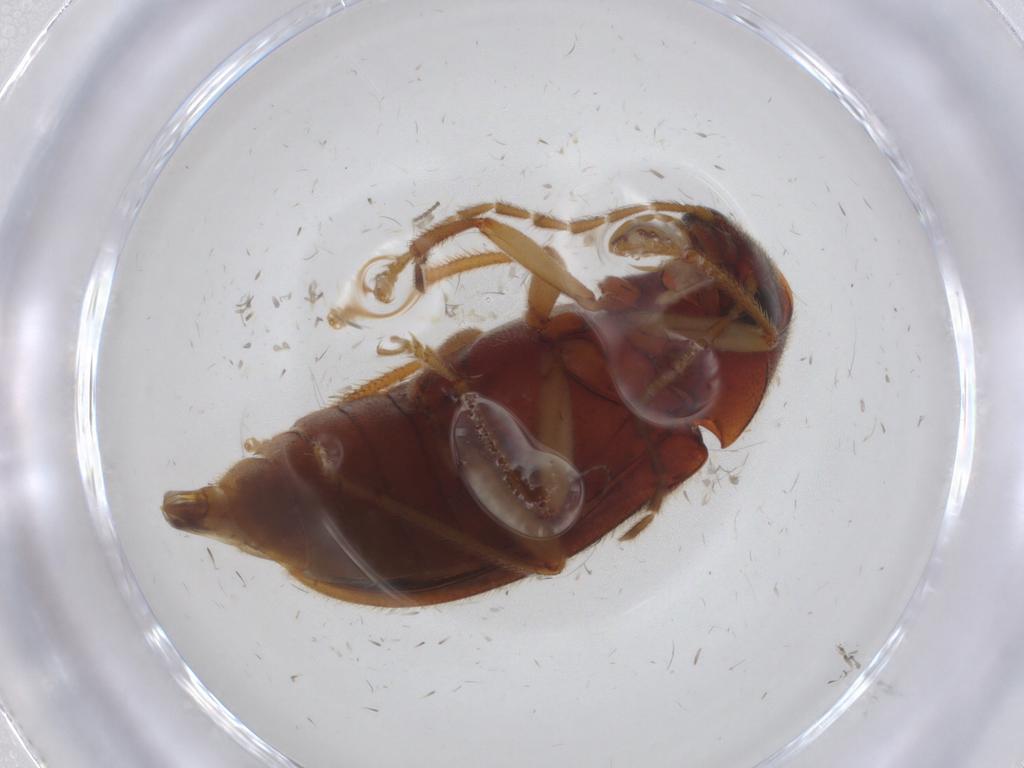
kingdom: Animalia
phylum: Arthropoda
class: Insecta
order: Coleoptera
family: Ptilodactylidae
